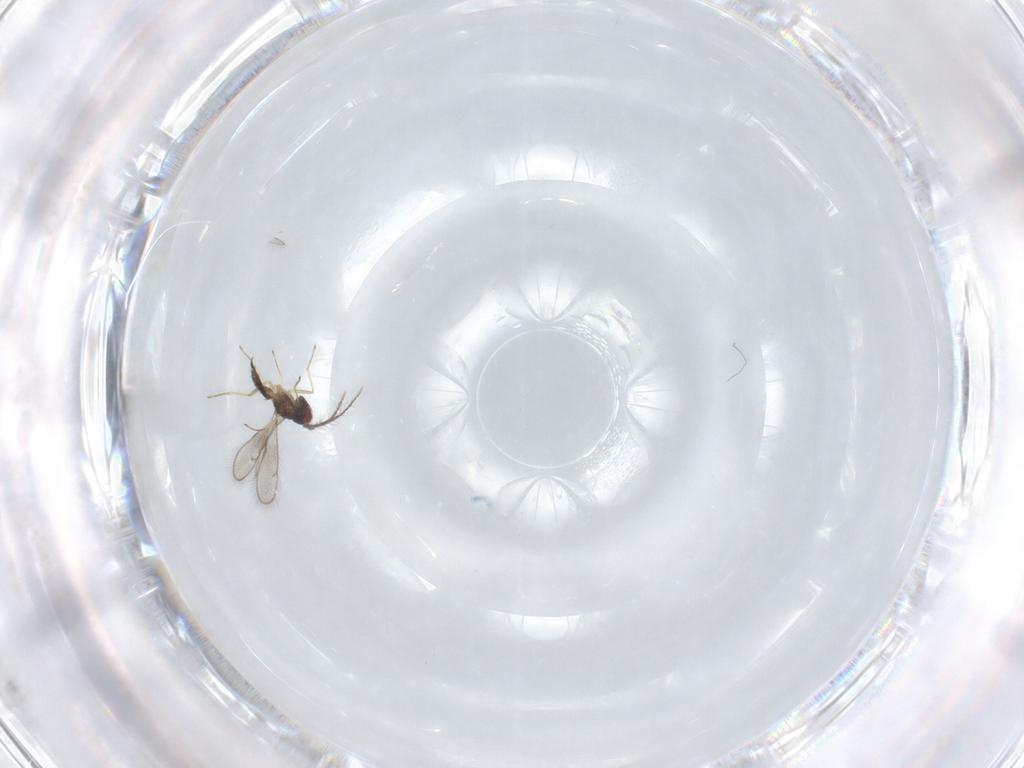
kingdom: Animalia
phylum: Arthropoda
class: Insecta
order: Hymenoptera
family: Eulophidae
